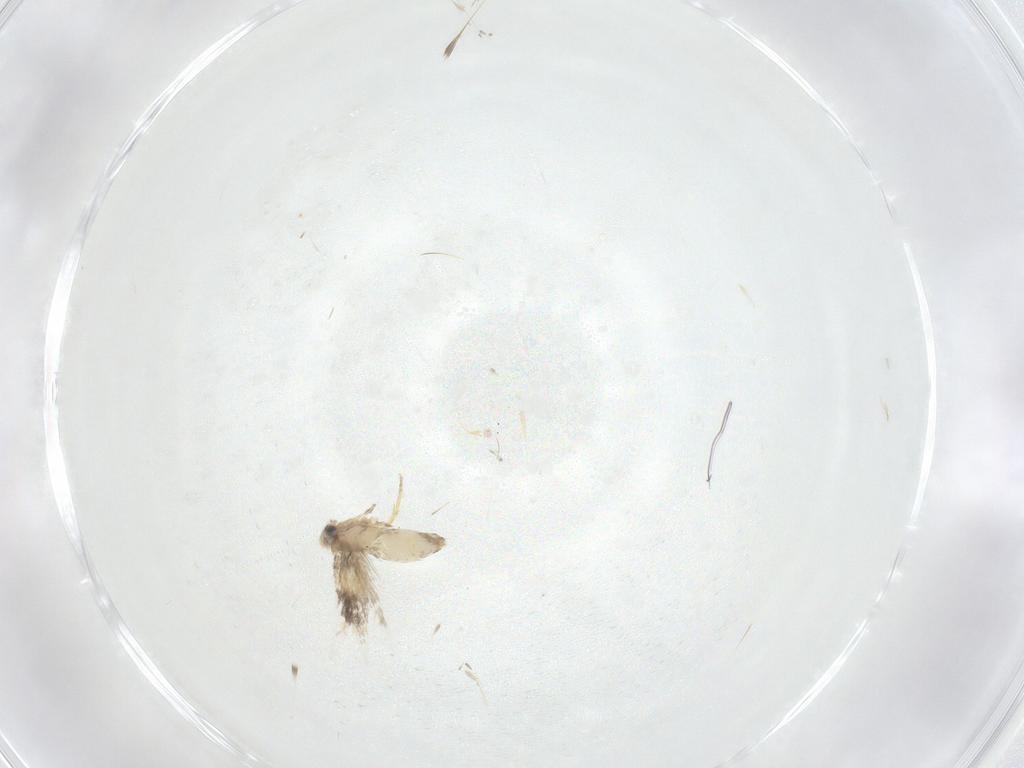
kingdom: Animalia
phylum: Arthropoda
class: Insecta
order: Lepidoptera
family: Nepticulidae
